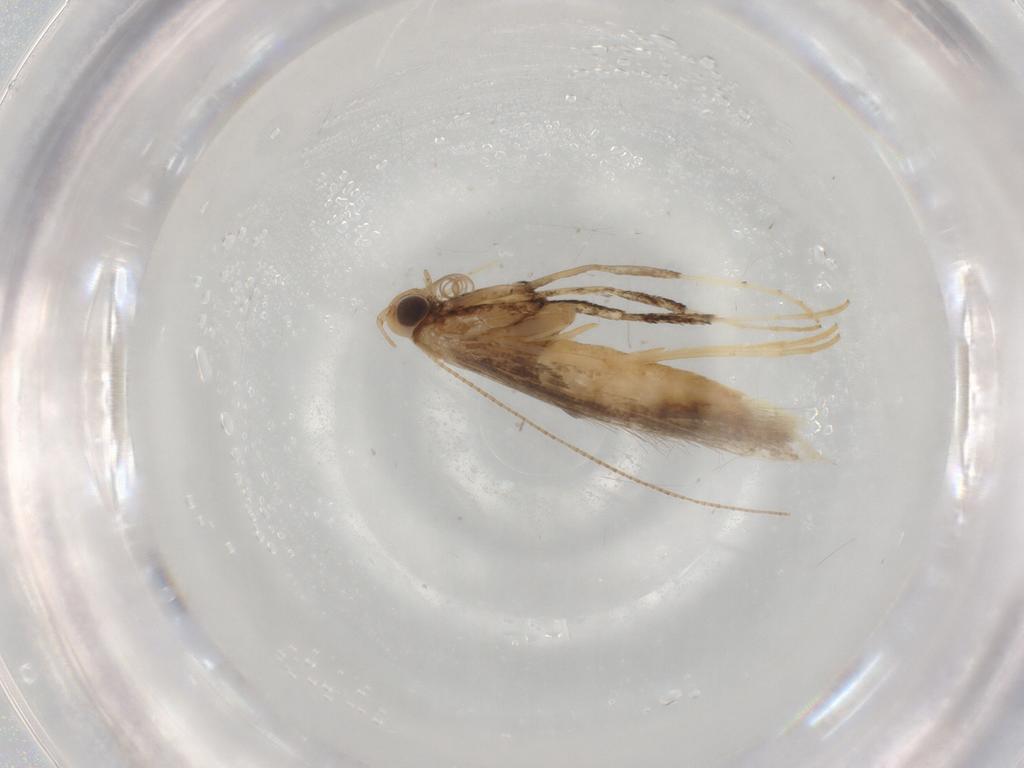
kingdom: Animalia
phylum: Arthropoda
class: Insecta
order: Lepidoptera
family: Gracillariidae
